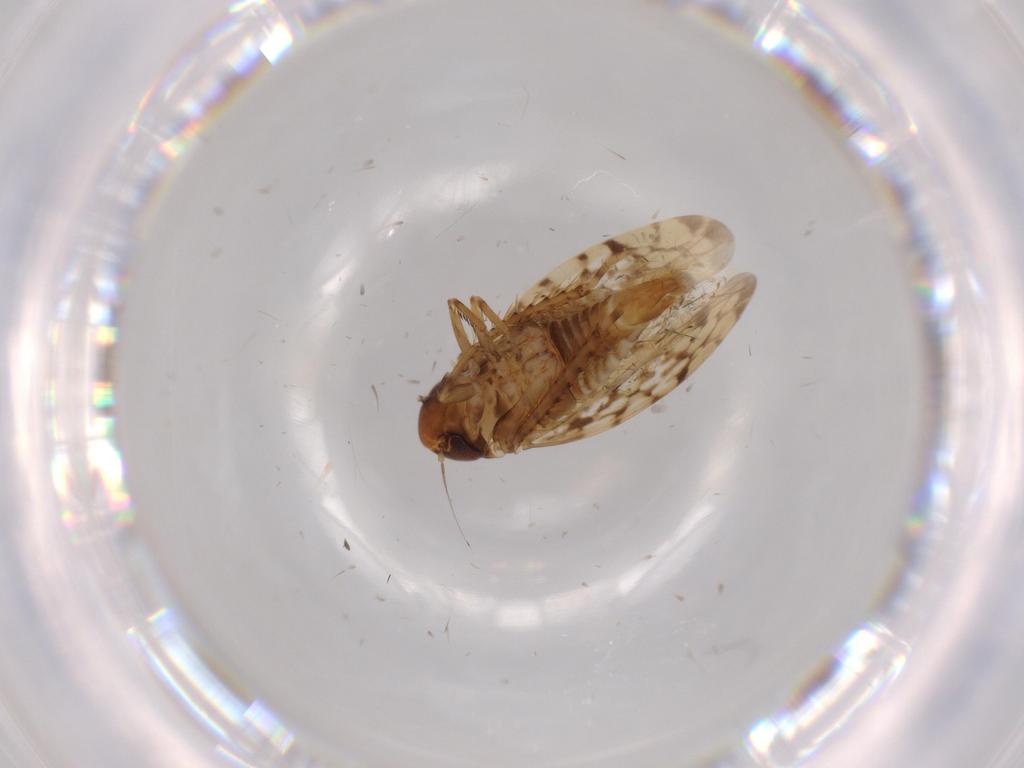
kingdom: Animalia
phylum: Arthropoda
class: Insecta
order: Hemiptera
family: Cicadellidae
